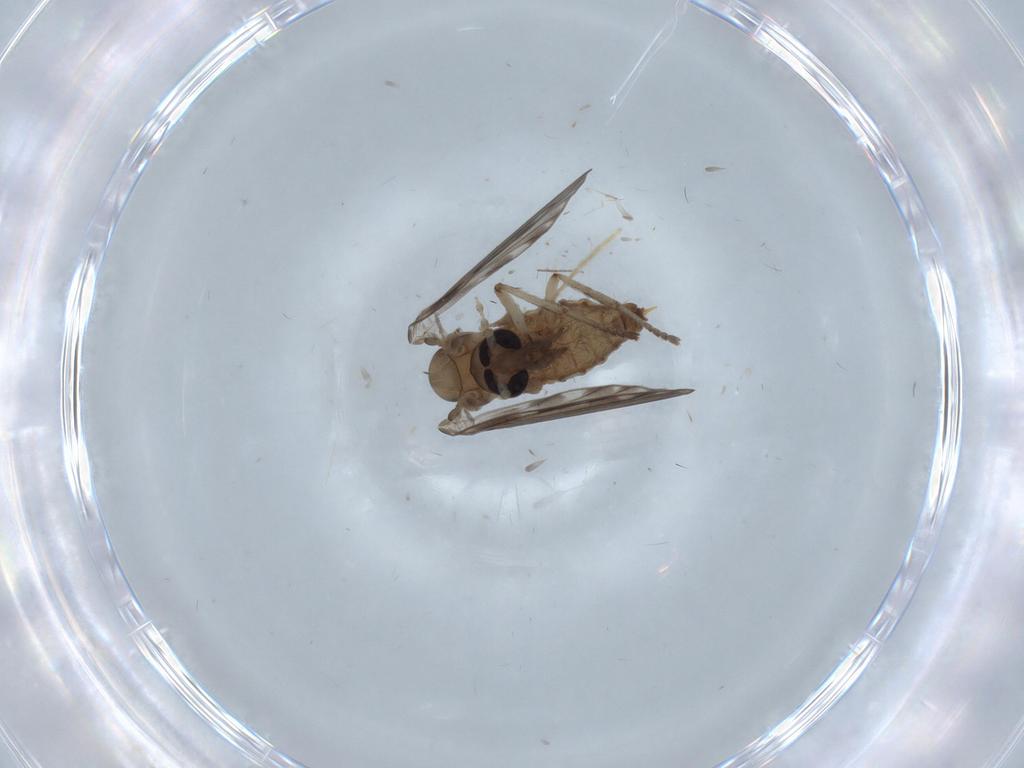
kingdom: Animalia
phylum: Arthropoda
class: Insecta
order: Diptera
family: Psychodidae
